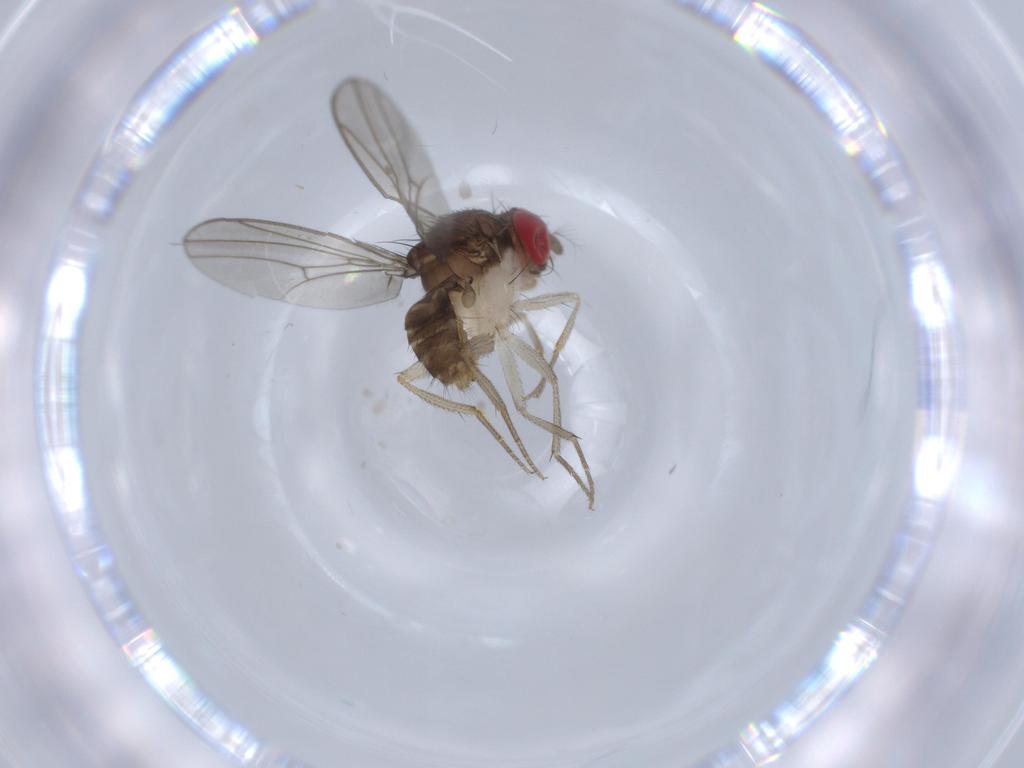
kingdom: Animalia
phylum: Arthropoda
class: Insecta
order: Diptera
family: Drosophilidae
